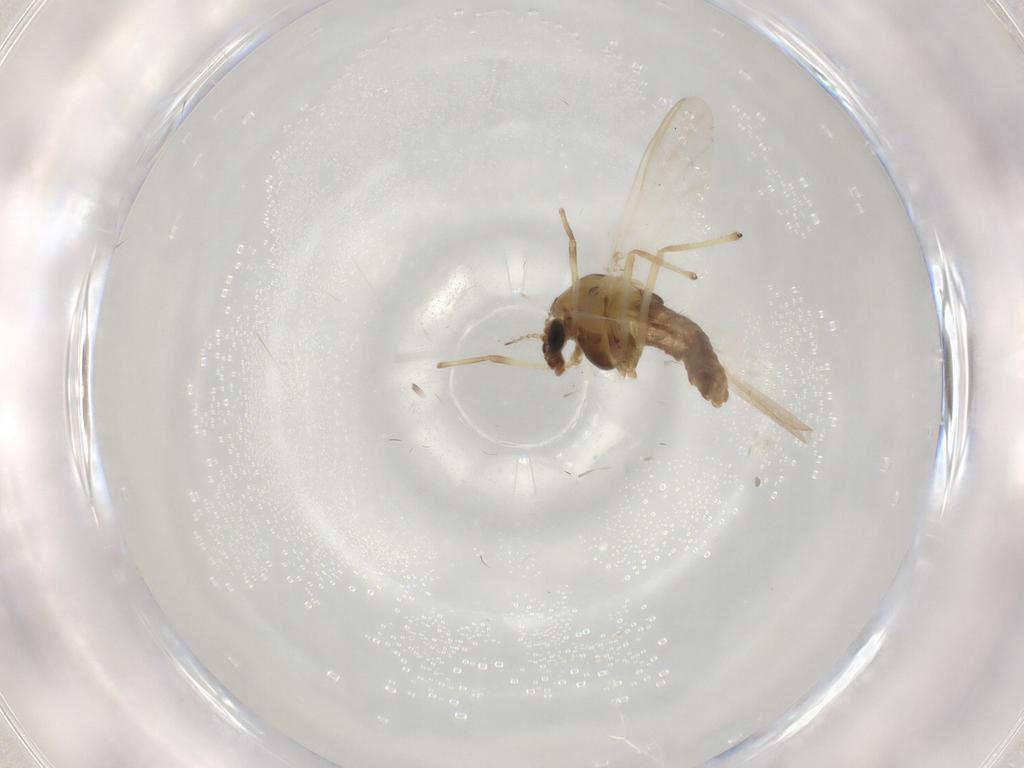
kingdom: Animalia
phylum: Arthropoda
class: Insecta
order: Diptera
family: Chironomidae
